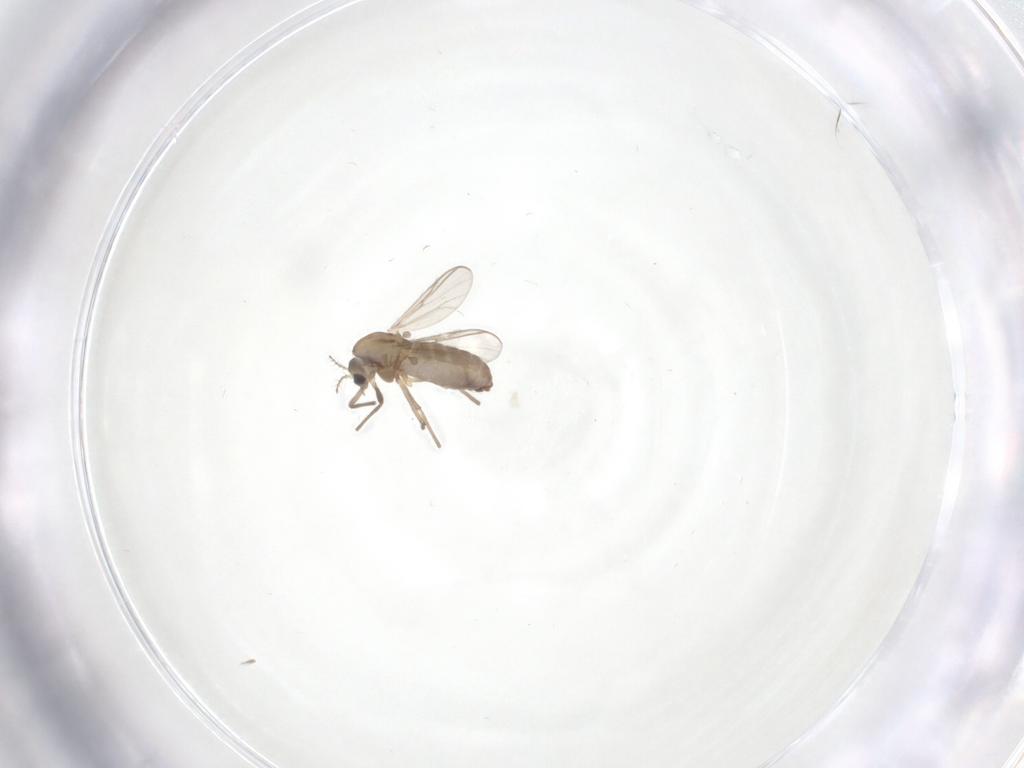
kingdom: Animalia
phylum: Arthropoda
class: Insecta
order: Diptera
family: Chironomidae
